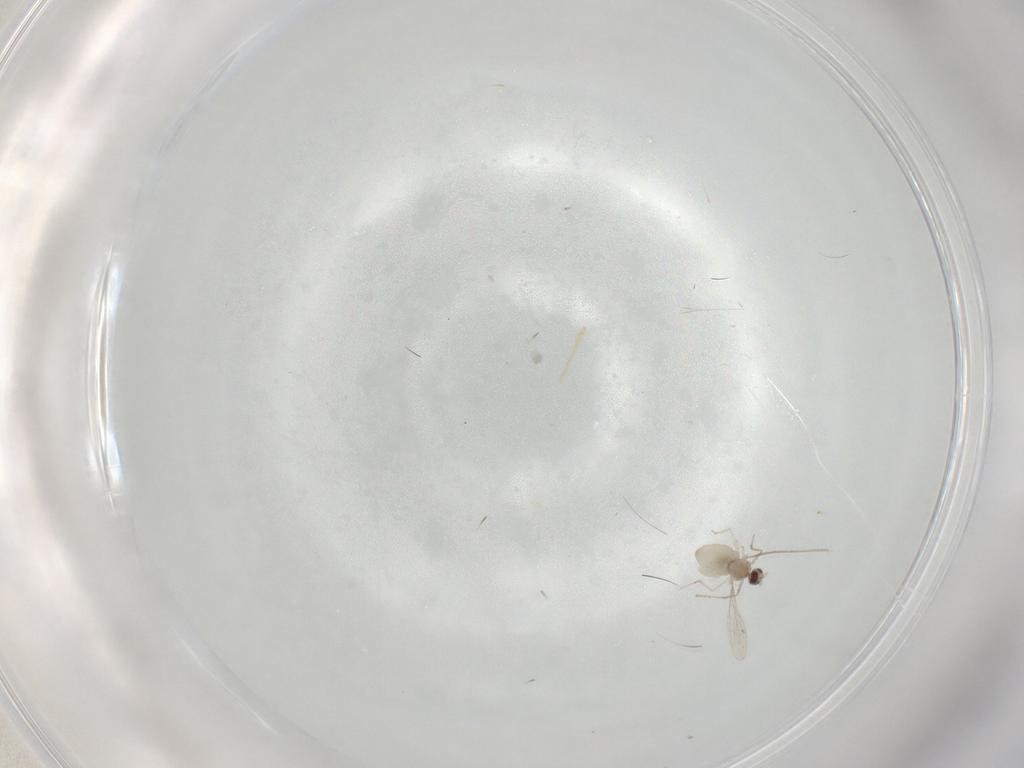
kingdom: Animalia
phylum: Arthropoda
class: Insecta
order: Diptera
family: Cecidomyiidae
